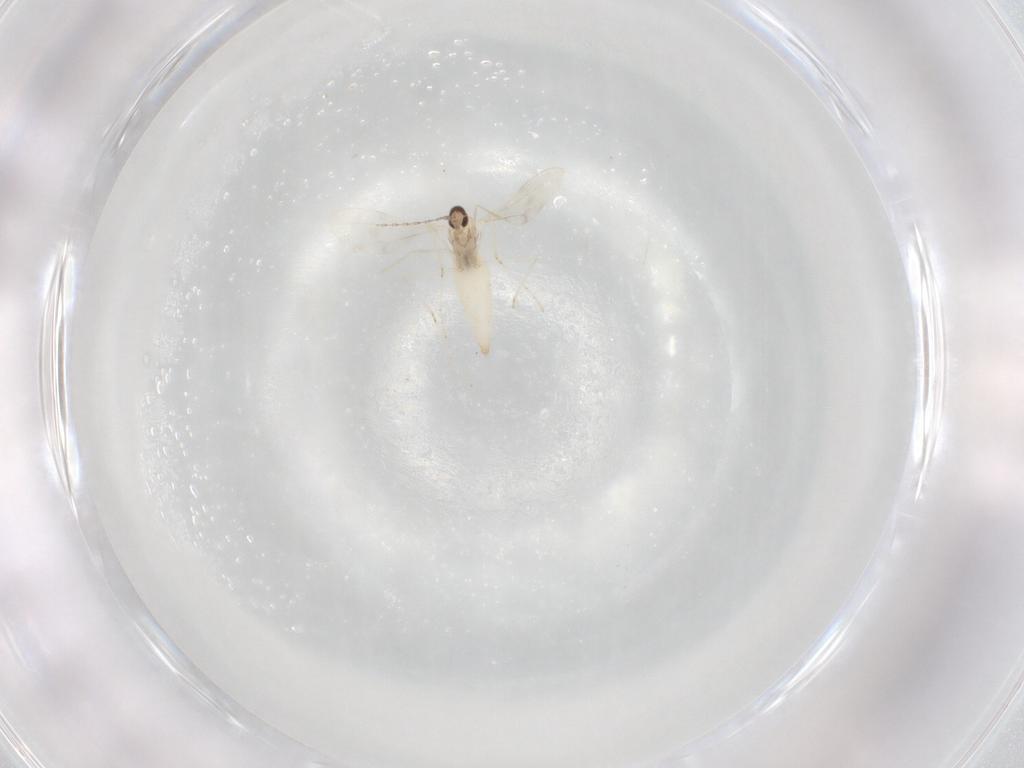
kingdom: Animalia
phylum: Arthropoda
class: Insecta
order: Diptera
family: Cecidomyiidae
